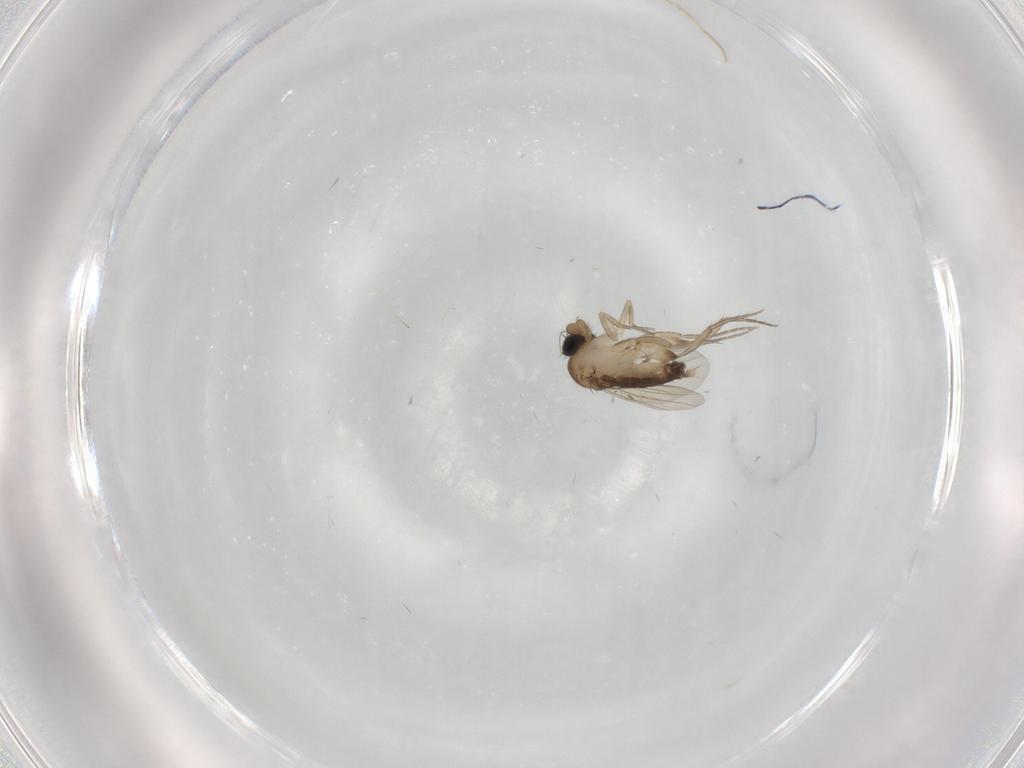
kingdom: Animalia
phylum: Arthropoda
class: Insecta
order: Diptera
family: Phoridae
